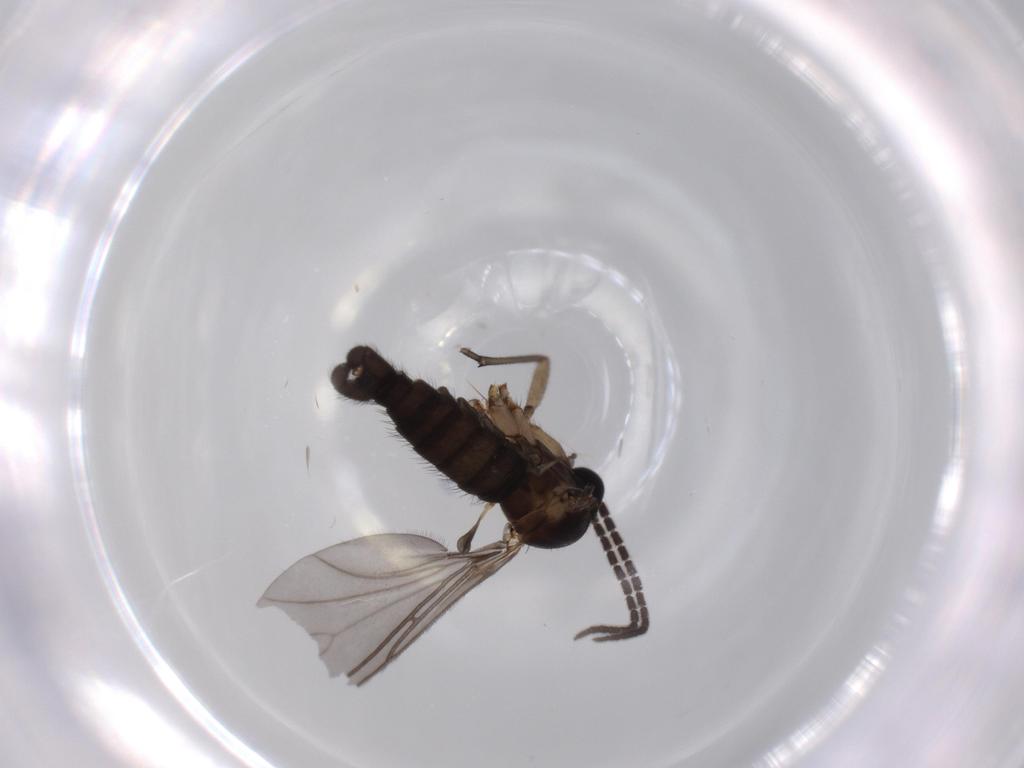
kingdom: Animalia
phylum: Arthropoda
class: Insecta
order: Diptera
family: Sciaridae
